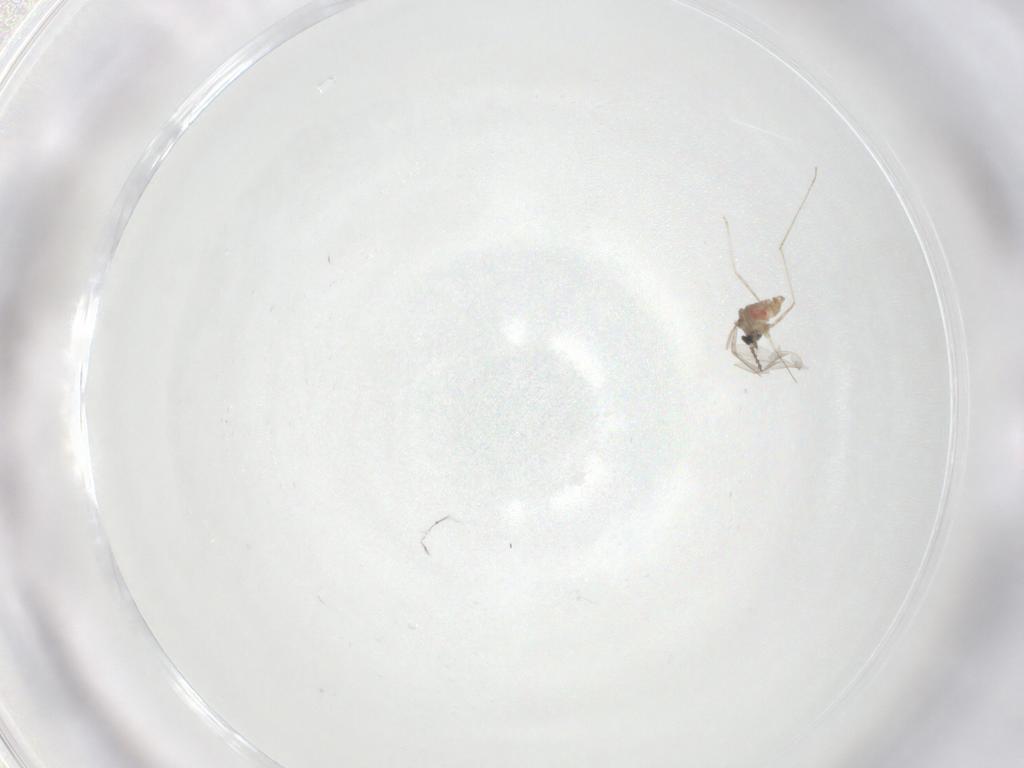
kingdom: Animalia
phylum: Arthropoda
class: Insecta
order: Diptera
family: Cecidomyiidae
